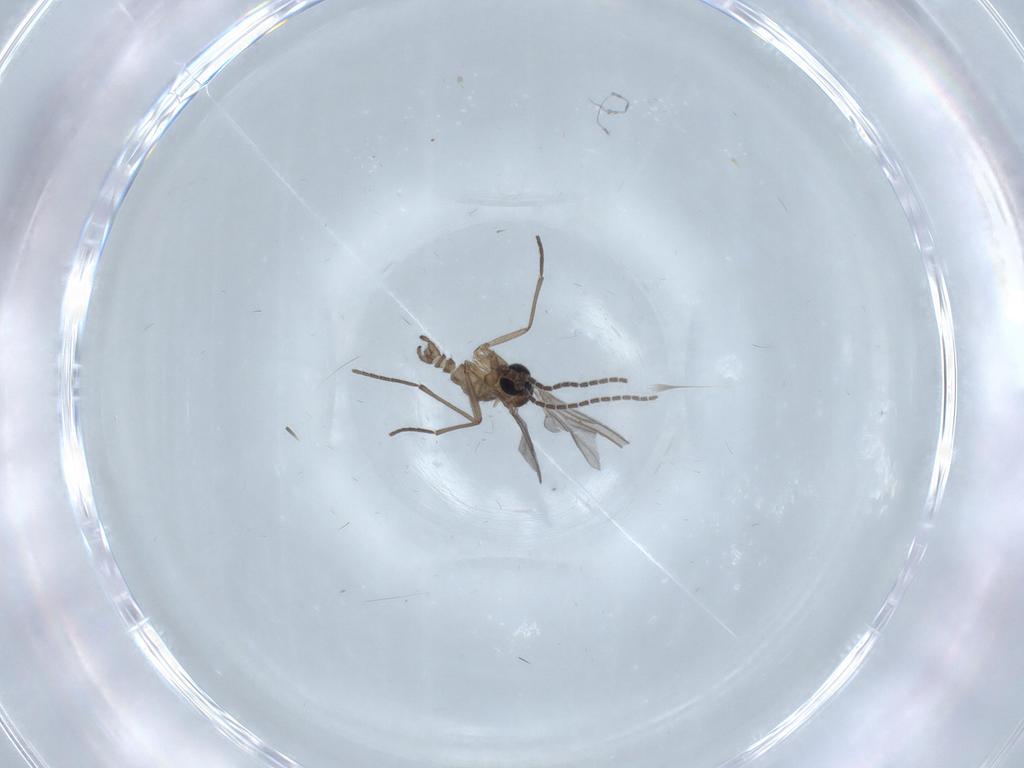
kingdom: Animalia
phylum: Arthropoda
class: Insecta
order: Diptera
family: Sciaridae
